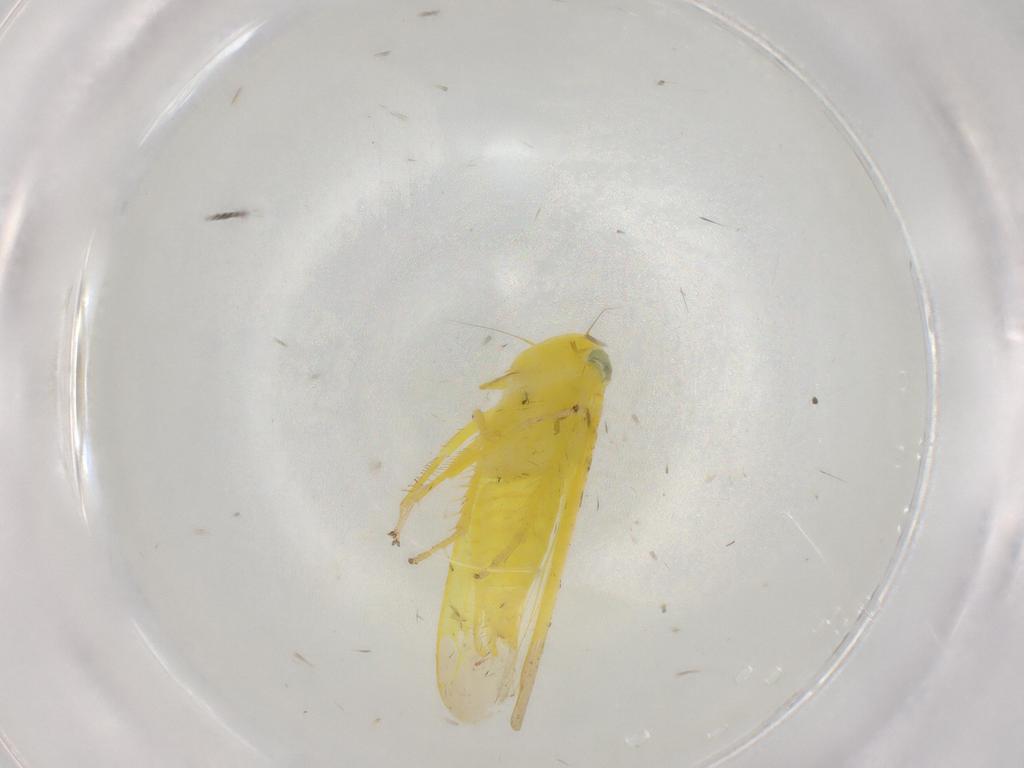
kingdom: Animalia
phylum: Arthropoda
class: Insecta
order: Hemiptera
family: Cicadellidae
